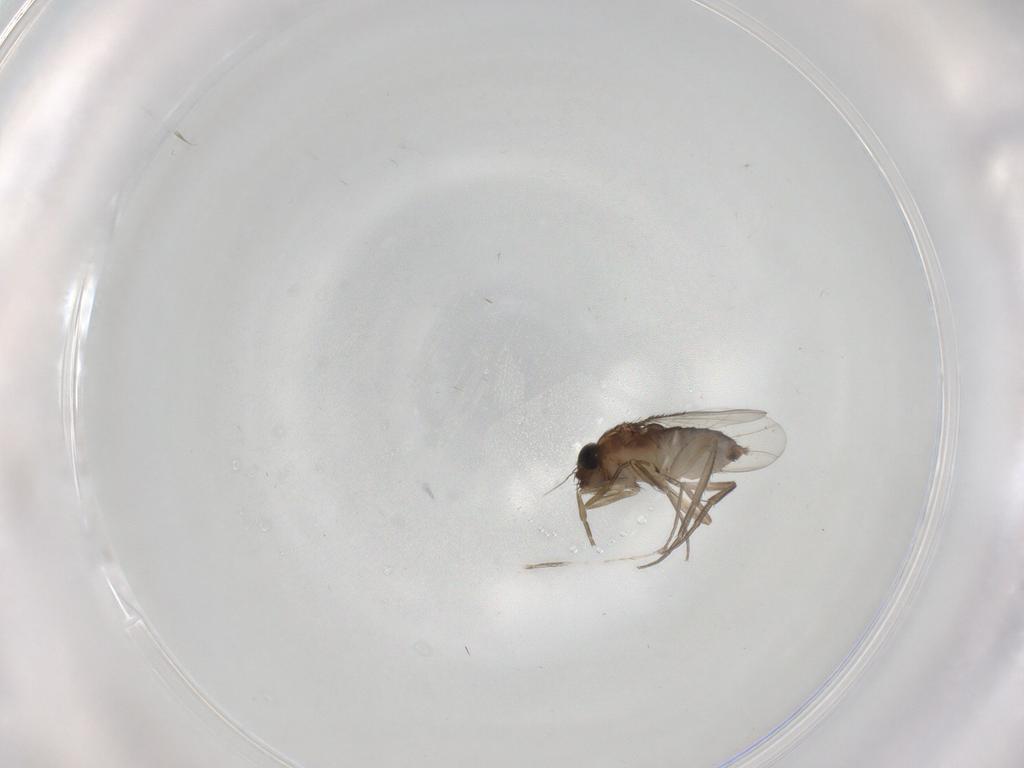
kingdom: Animalia
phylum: Arthropoda
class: Insecta
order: Diptera
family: Phoridae
